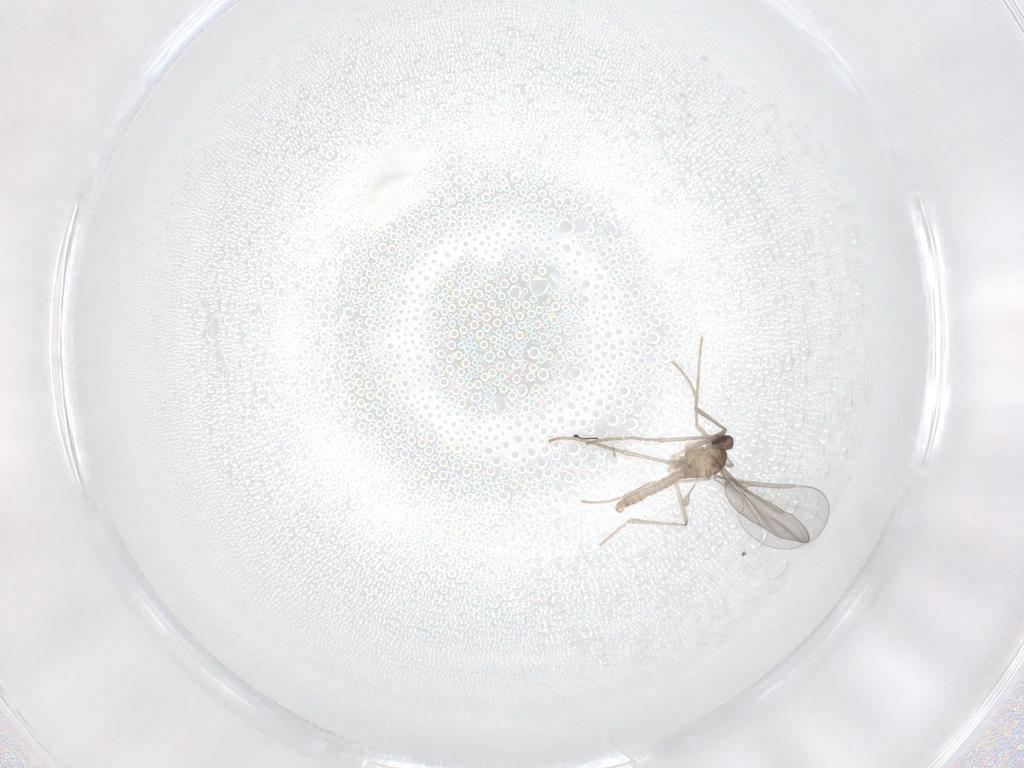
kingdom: Animalia
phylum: Arthropoda
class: Insecta
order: Diptera
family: Cecidomyiidae
